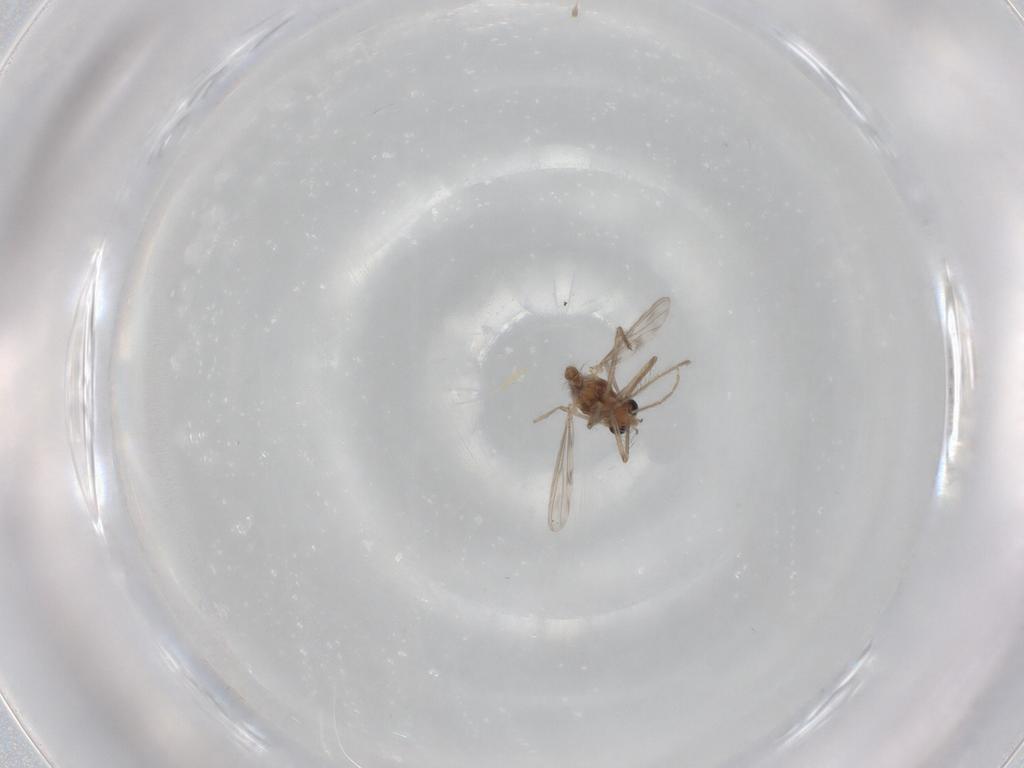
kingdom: Animalia
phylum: Arthropoda
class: Insecta
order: Diptera
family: Chironomidae
